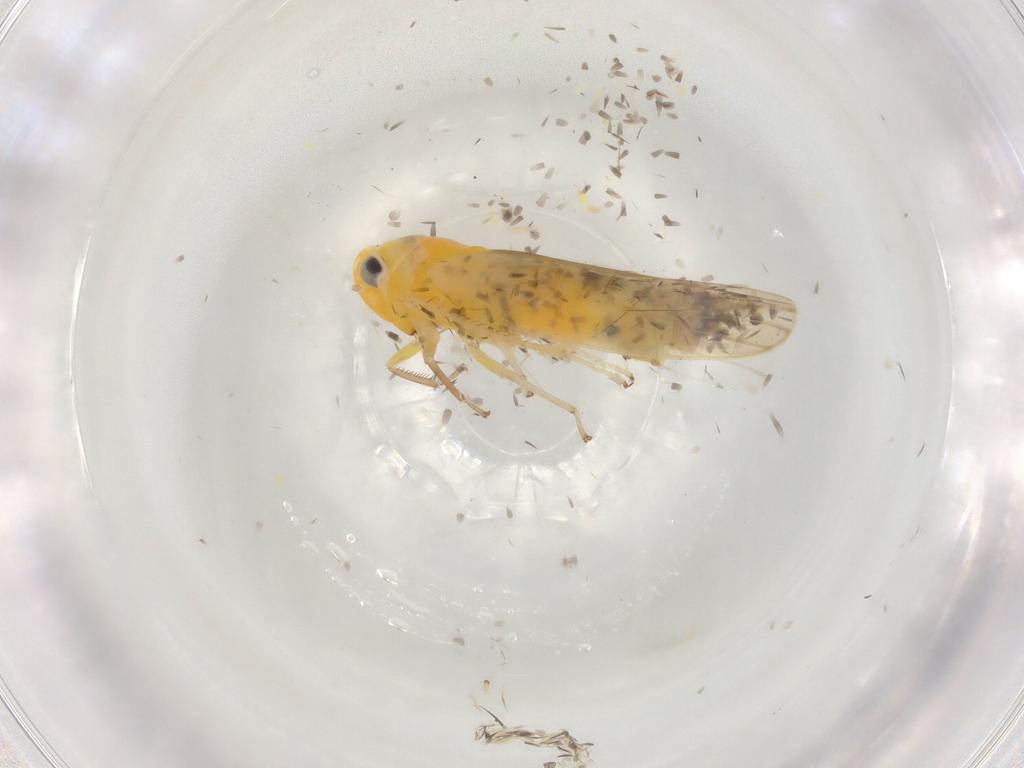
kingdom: Animalia
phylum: Arthropoda
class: Insecta
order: Hemiptera
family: Cicadellidae
